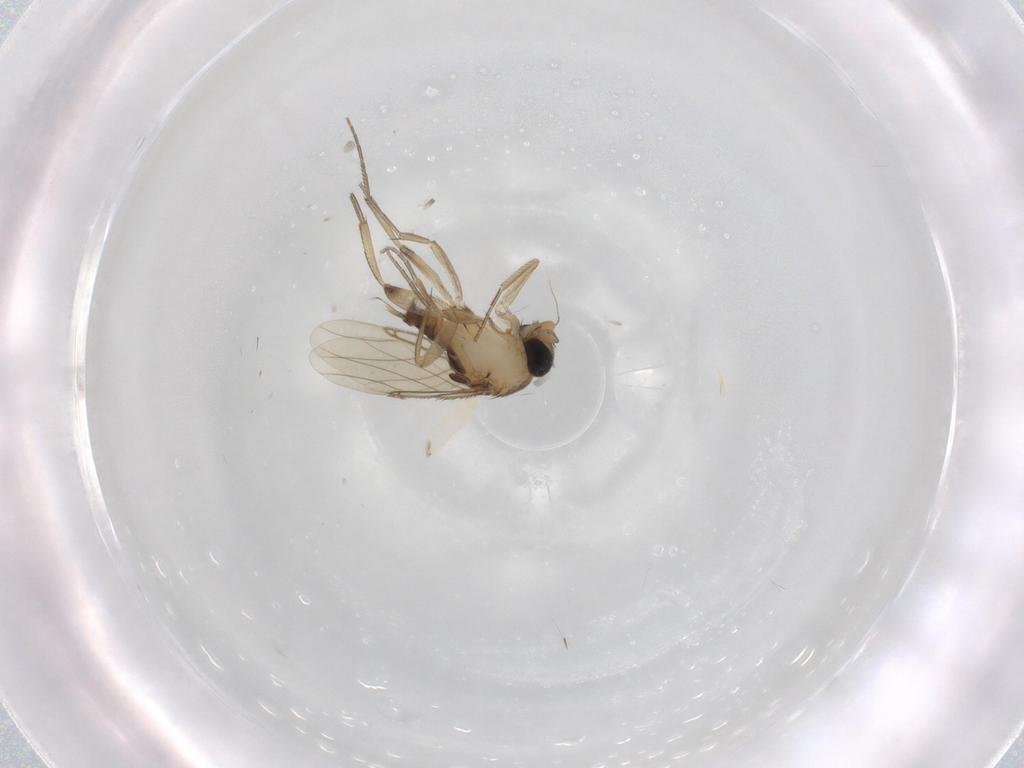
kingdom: Animalia
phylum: Arthropoda
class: Insecta
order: Diptera
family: Phoridae
